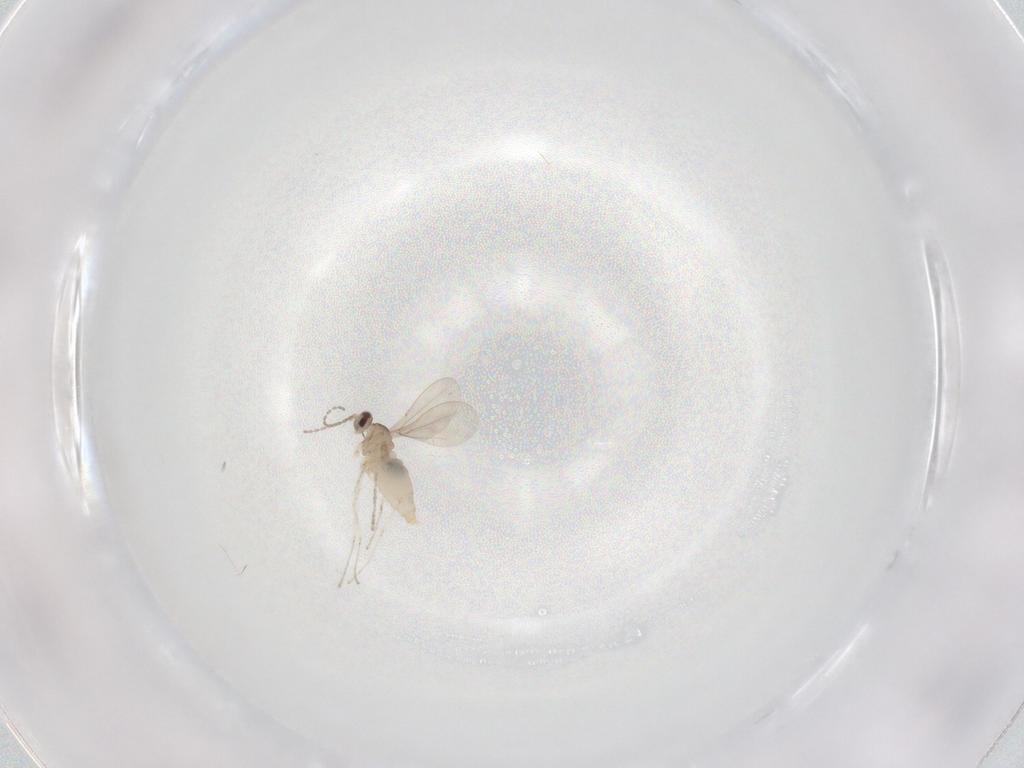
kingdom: Animalia
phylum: Arthropoda
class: Insecta
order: Diptera
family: Cecidomyiidae
